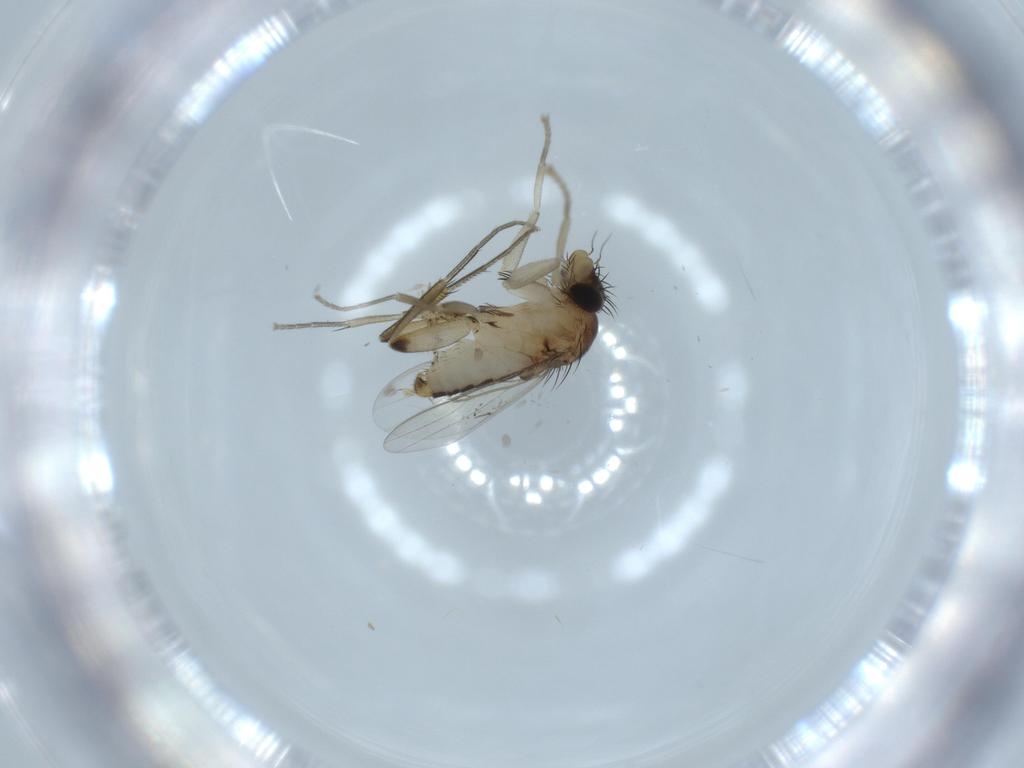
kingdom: Animalia
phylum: Arthropoda
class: Insecta
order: Diptera
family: Phoridae
